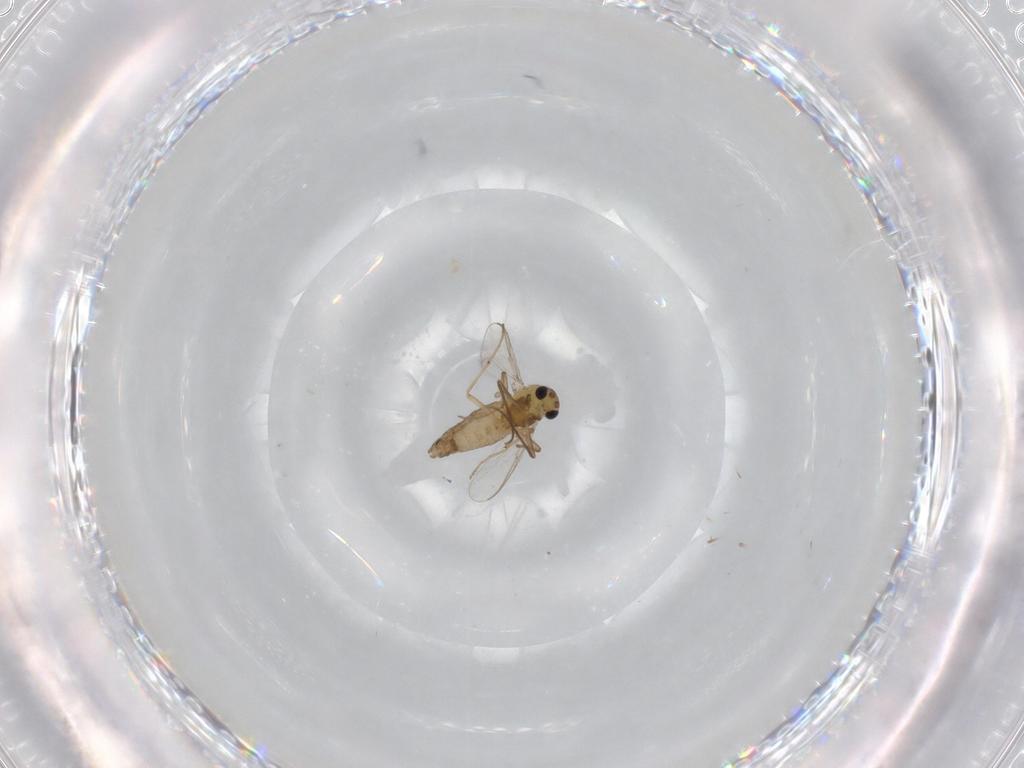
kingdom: Animalia
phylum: Arthropoda
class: Insecta
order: Diptera
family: Chironomidae
